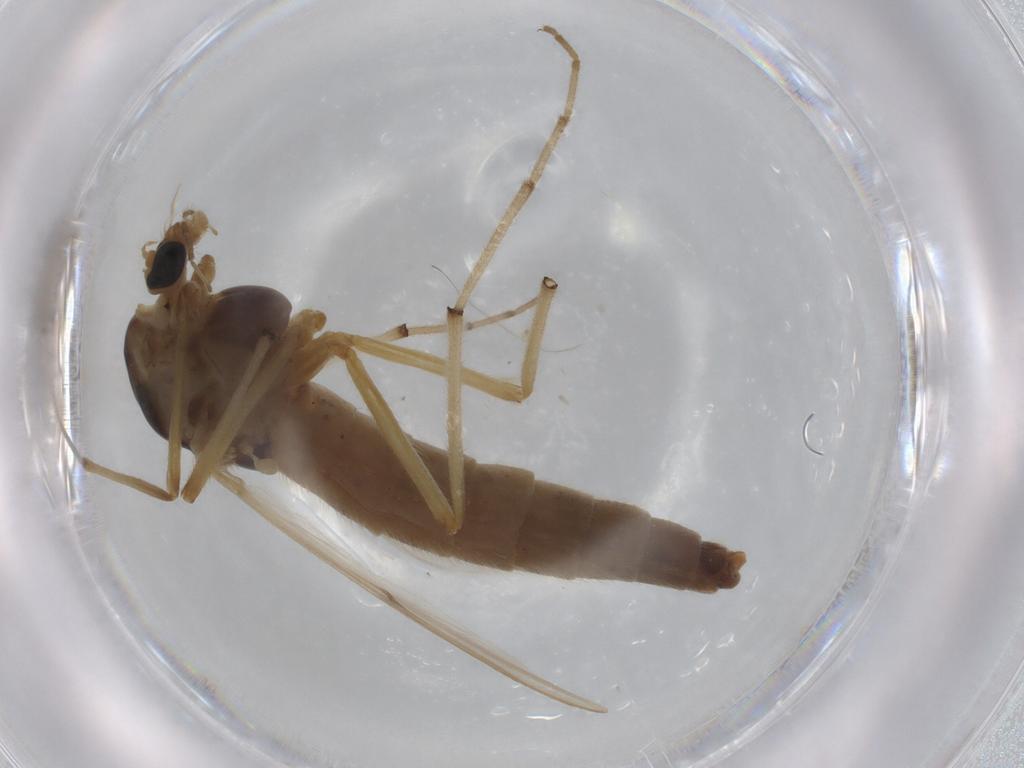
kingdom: Animalia
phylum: Arthropoda
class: Insecta
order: Diptera
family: Chironomidae
